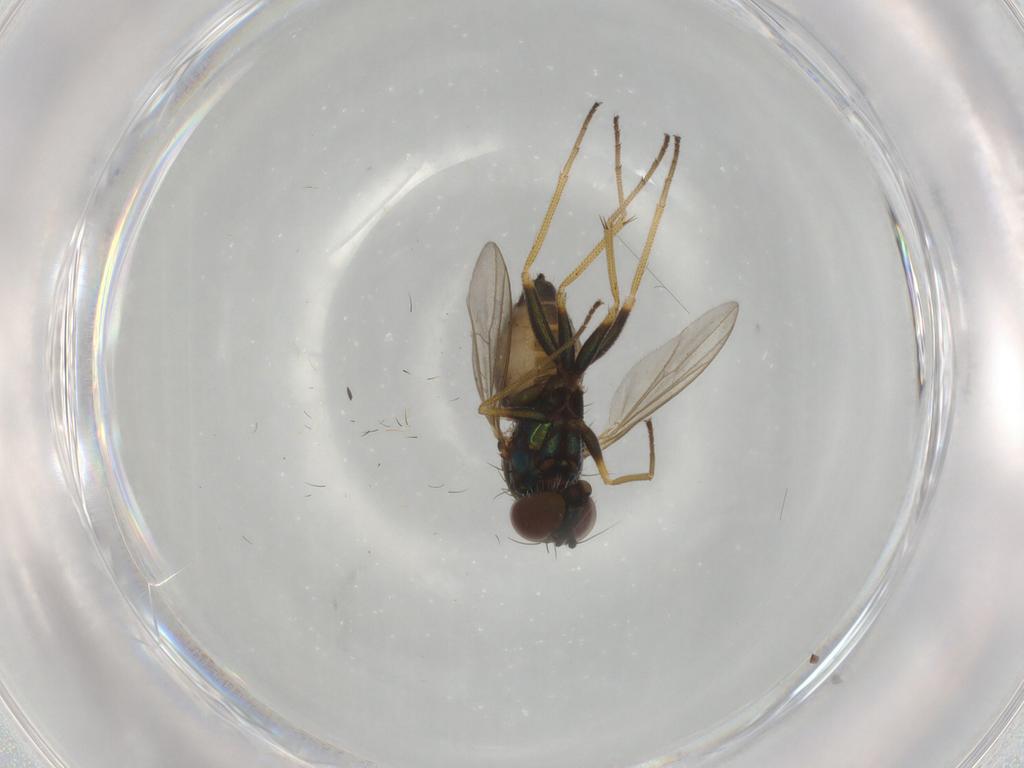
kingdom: Animalia
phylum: Arthropoda
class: Insecta
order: Diptera
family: Dolichopodidae
